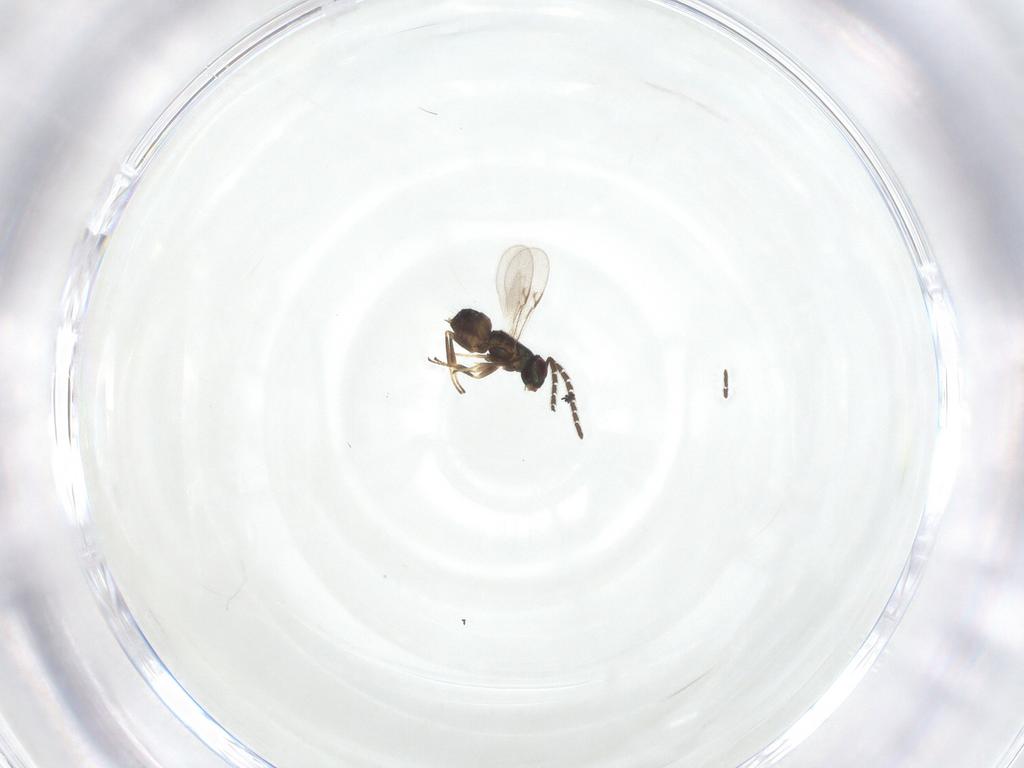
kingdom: Animalia
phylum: Arthropoda
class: Insecta
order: Hymenoptera
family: Encyrtidae
